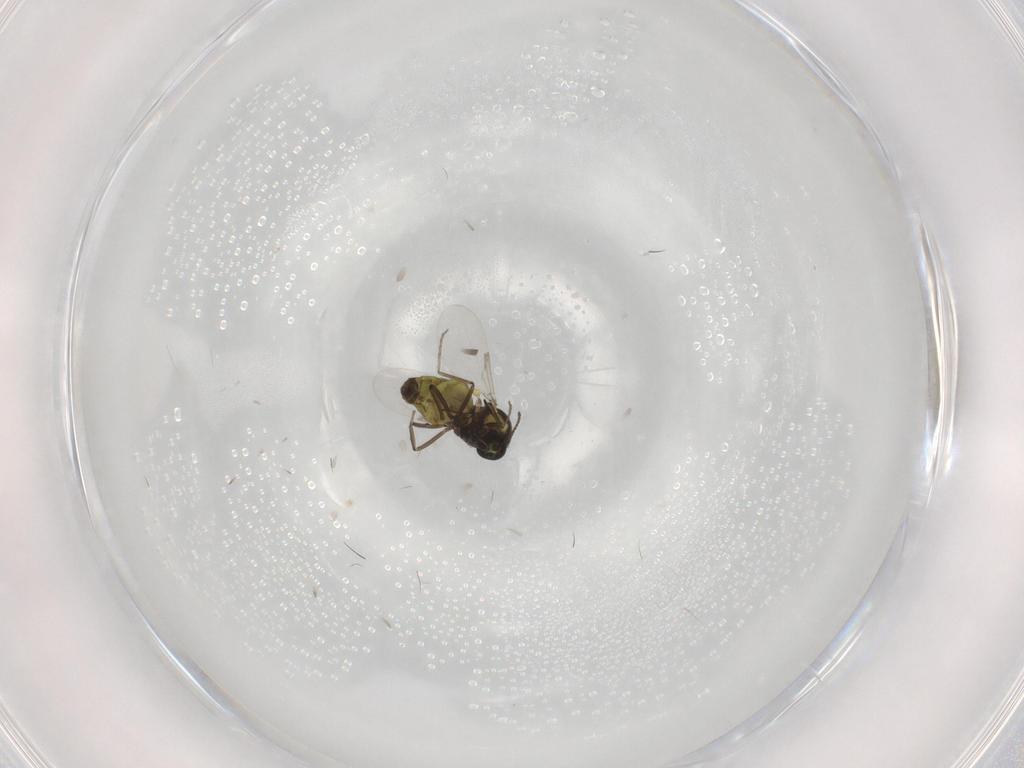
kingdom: Animalia
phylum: Arthropoda
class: Insecta
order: Diptera
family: Ceratopogonidae
